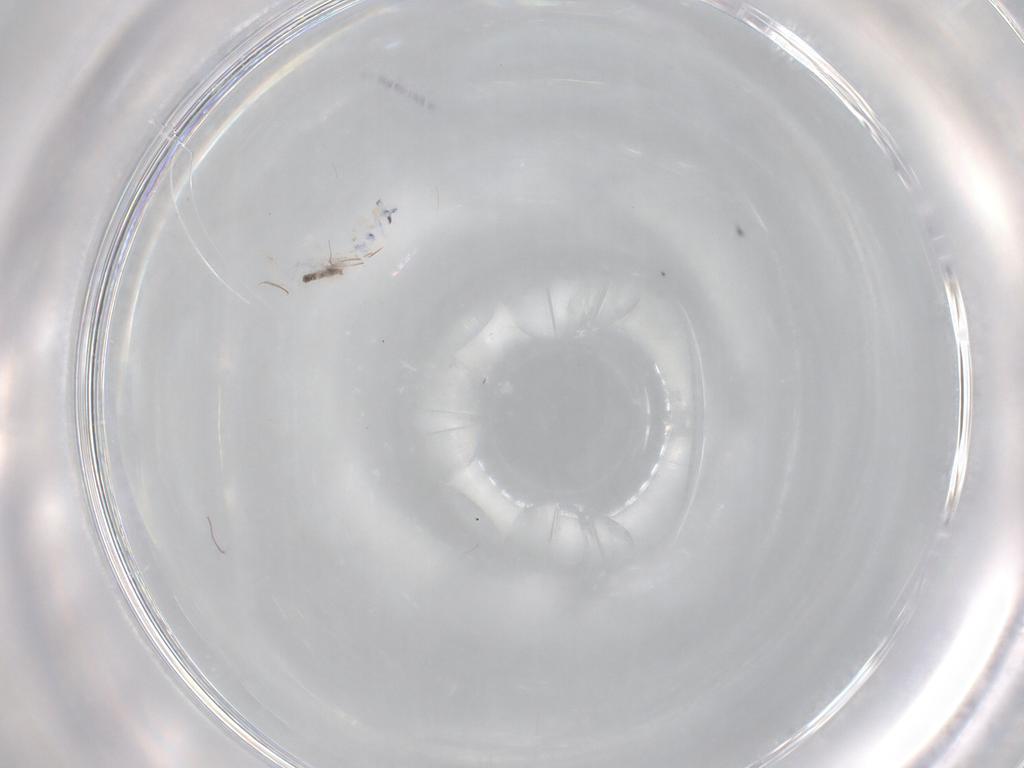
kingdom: Animalia
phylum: Arthropoda
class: Collembola
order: Entomobryomorpha
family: Entomobryidae
